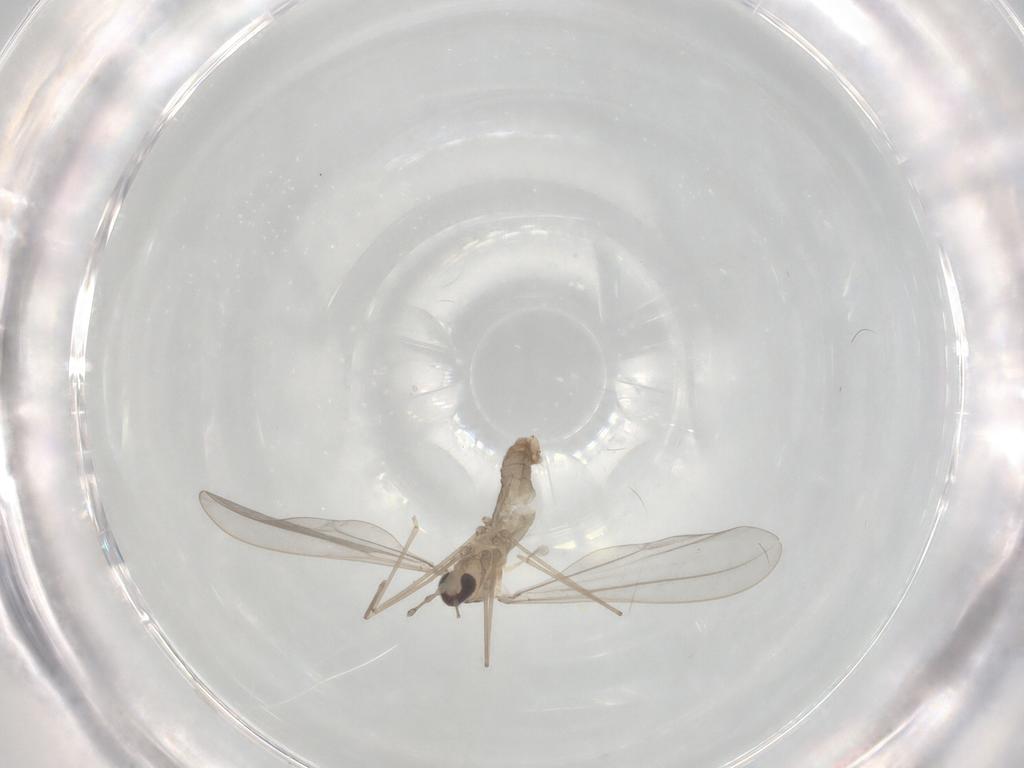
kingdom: Animalia
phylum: Arthropoda
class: Insecta
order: Diptera
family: Cecidomyiidae
